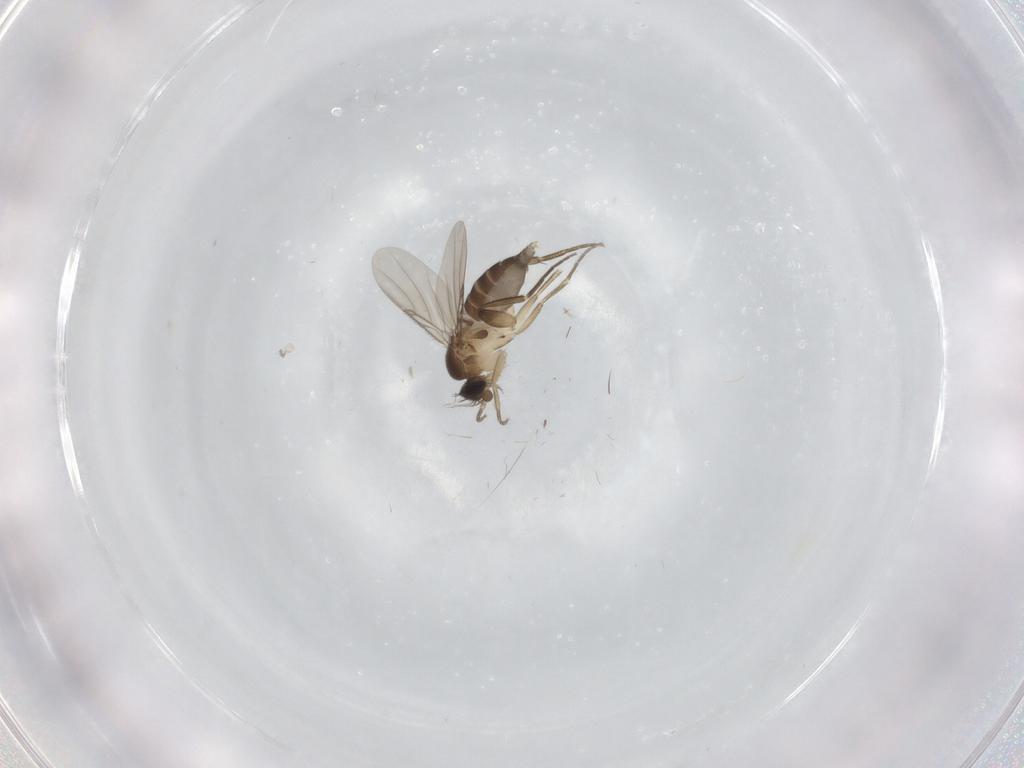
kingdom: Animalia
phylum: Arthropoda
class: Insecta
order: Diptera
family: Phoridae
